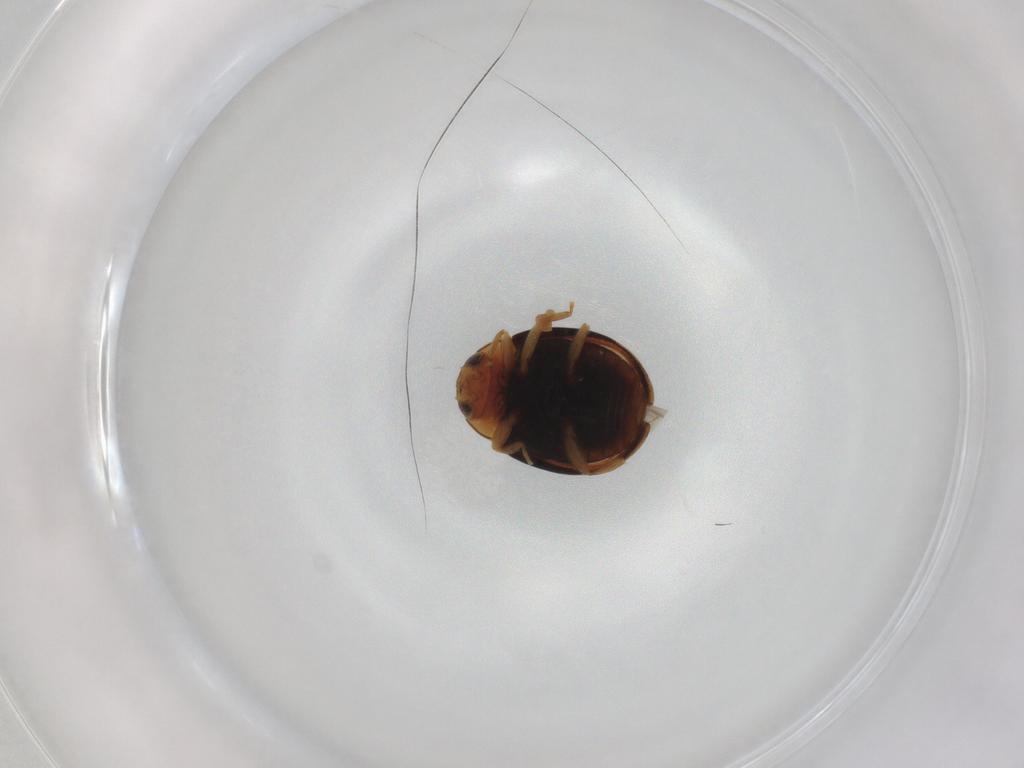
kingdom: Animalia
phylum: Arthropoda
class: Insecta
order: Coleoptera
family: Coccinellidae
